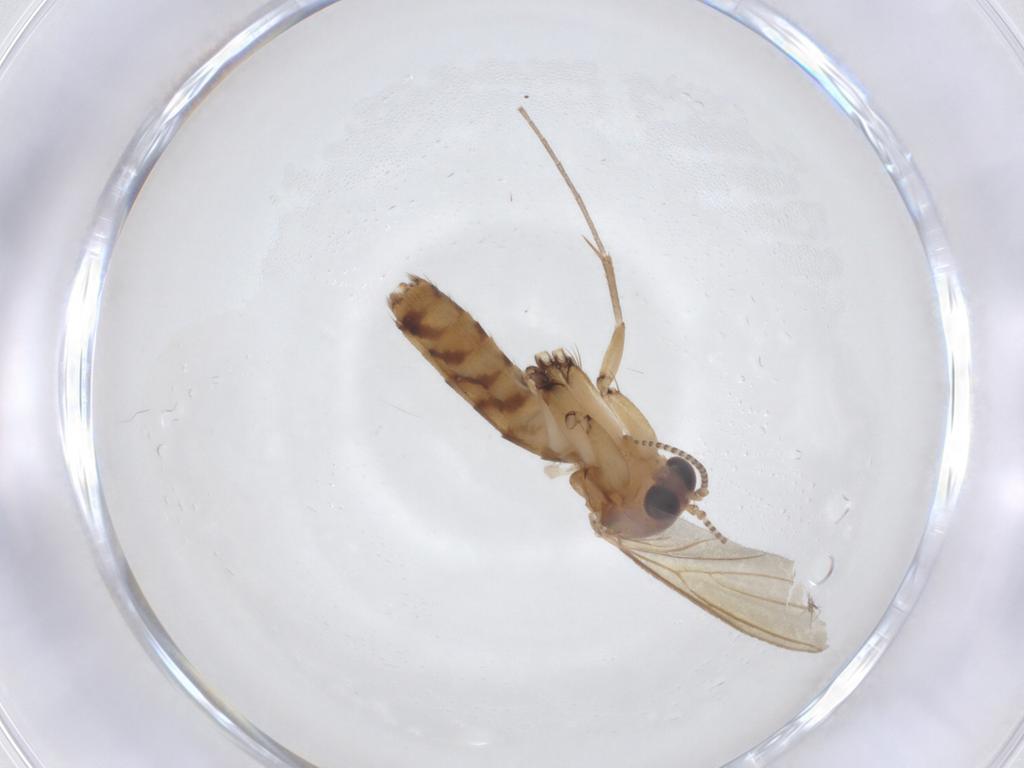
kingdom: Animalia
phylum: Arthropoda
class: Insecta
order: Diptera
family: Mycetophilidae
